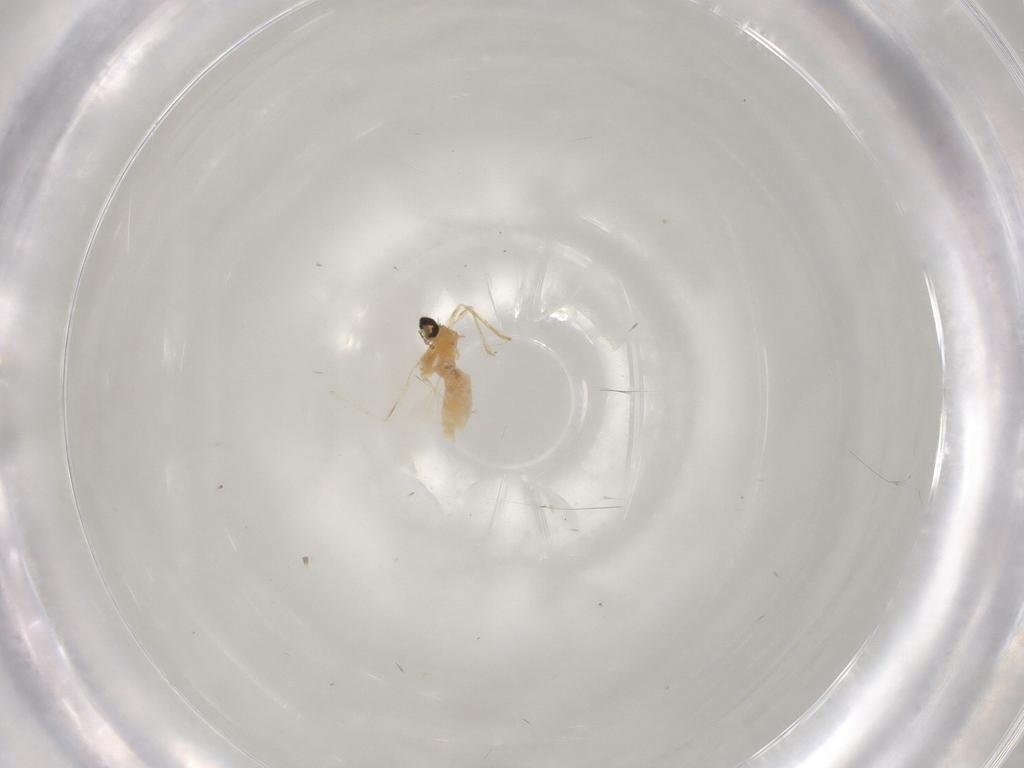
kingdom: Animalia
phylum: Arthropoda
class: Insecta
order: Diptera
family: Cecidomyiidae
